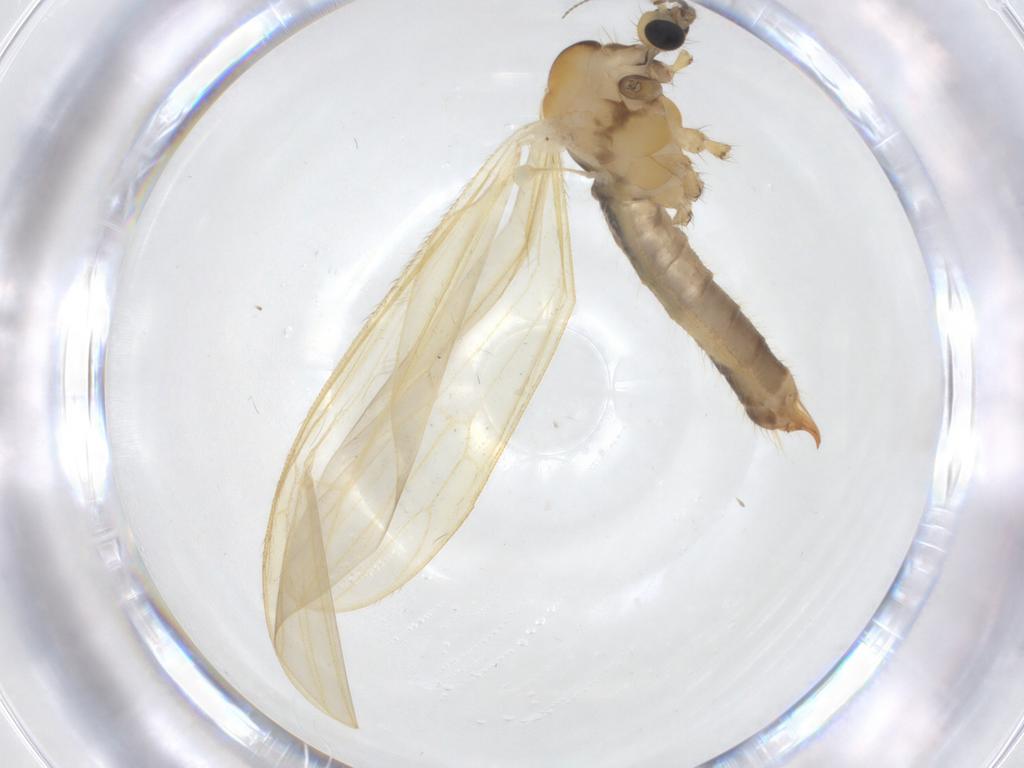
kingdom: Animalia
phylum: Arthropoda
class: Insecta
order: Diptera
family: Limoniidae
